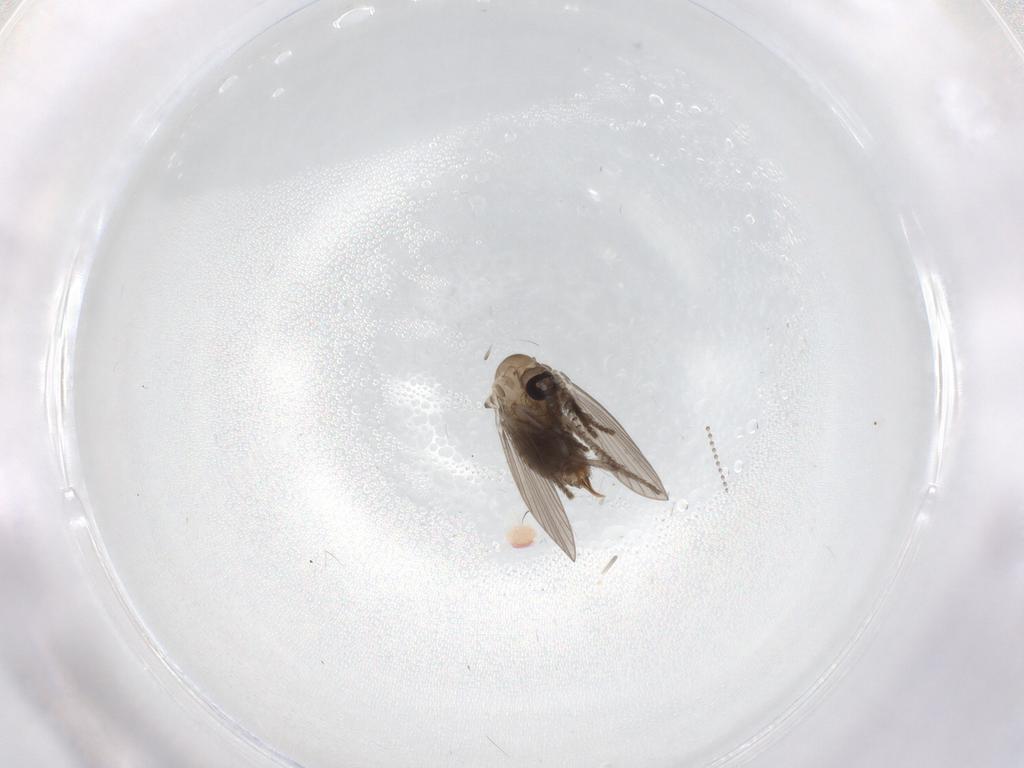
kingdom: Animalia
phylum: Arthropoda
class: Insecta
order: Diptera
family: Psychodidae
